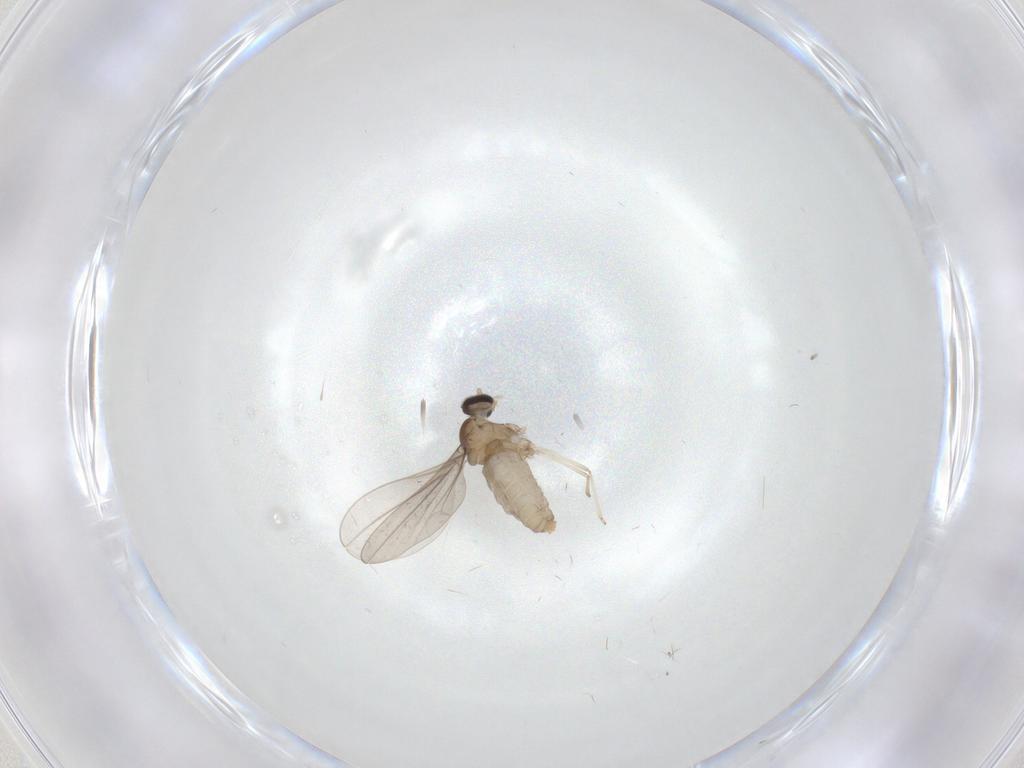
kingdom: Animalia
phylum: Arthropoda
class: Insecta
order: Diptera
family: Cecidomyiidae
